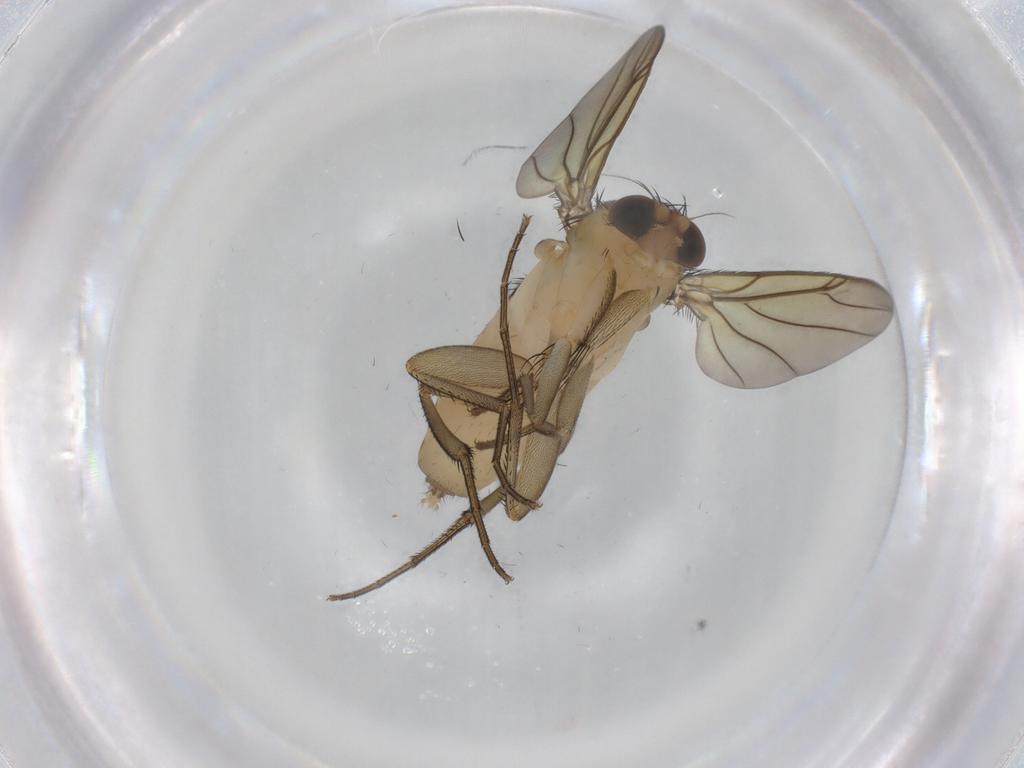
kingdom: Animalia
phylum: Arthropoda
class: Insecta
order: Diptera
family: Phoridae
